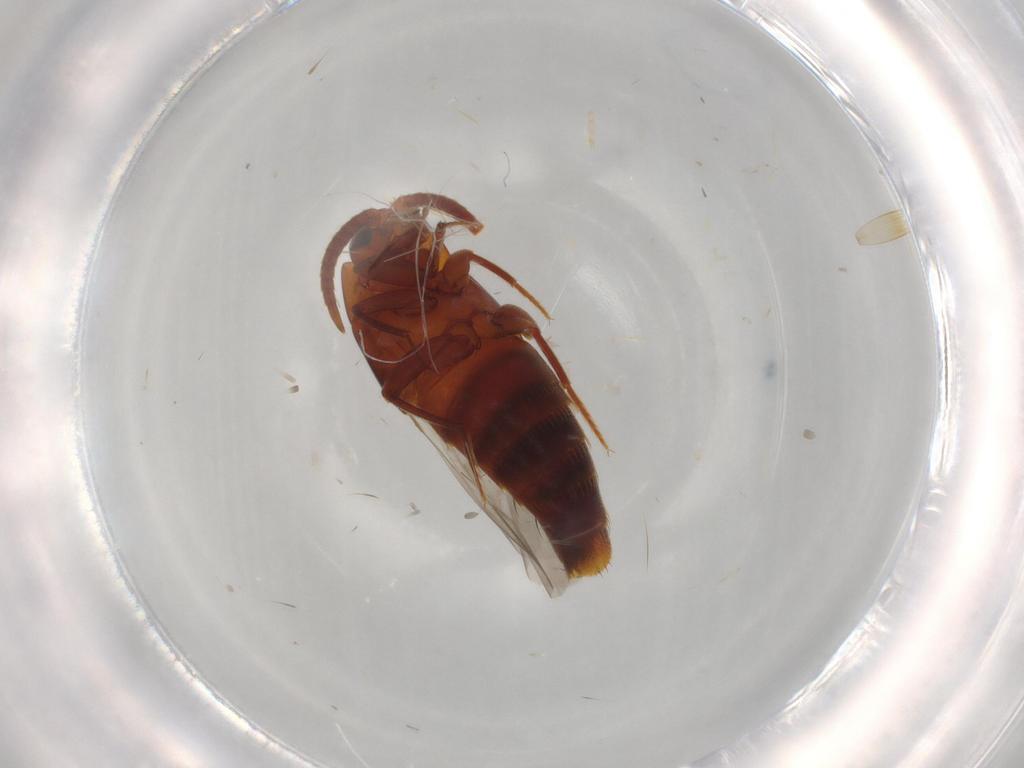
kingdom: Animalia
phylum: Arthropoda
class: Insecta
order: Coleoptera
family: Staphylinidae
